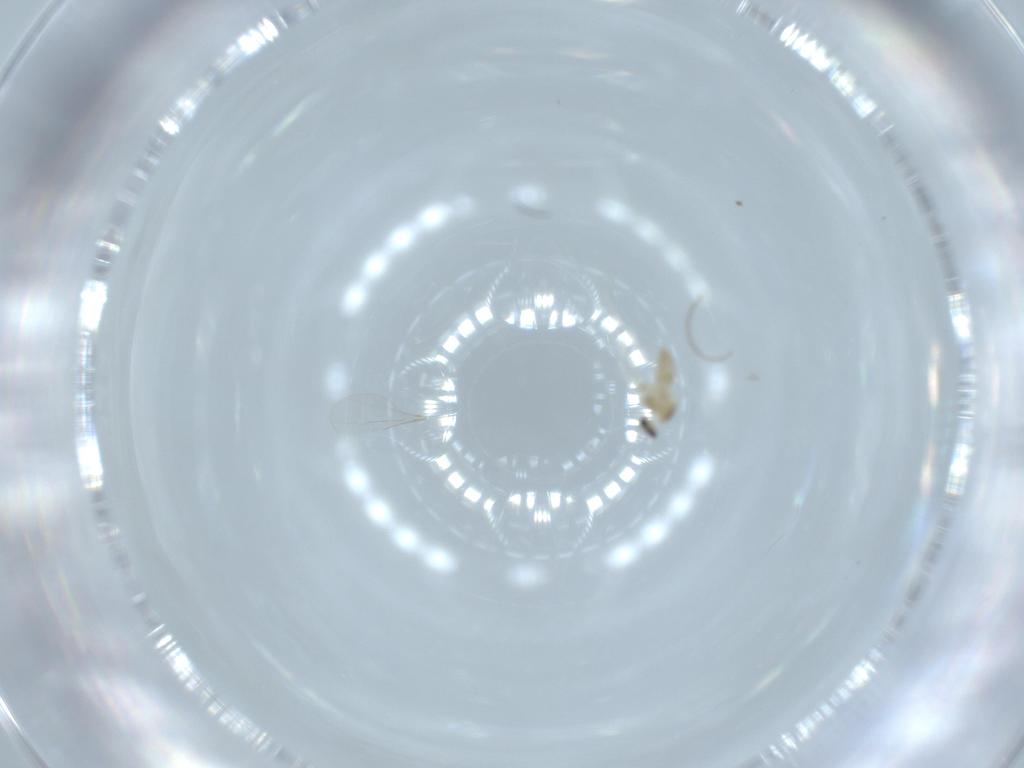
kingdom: Animalia
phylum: Arthropoda
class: Insecta
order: Diptera
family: Cecidomyiidae
